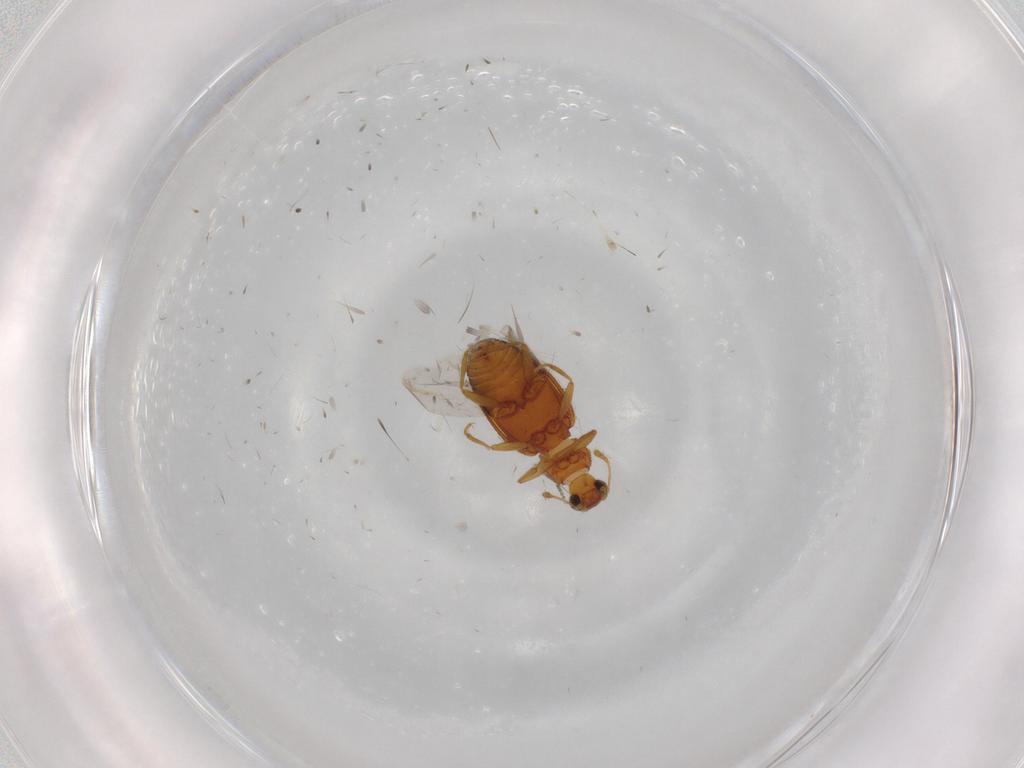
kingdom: Animalia
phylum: Arthropoda
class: Insecta
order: Coleoptera
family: Latridiidae
